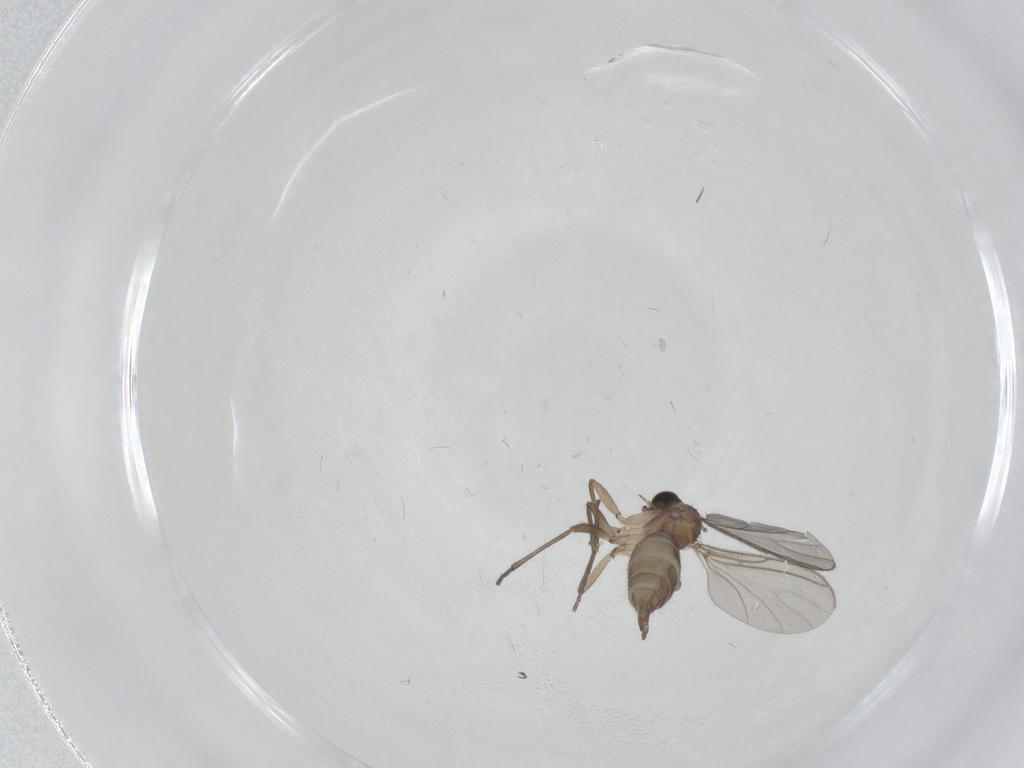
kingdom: Animalia
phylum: Arthropoda
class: Insecta
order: Diptera
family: Sciaridae
